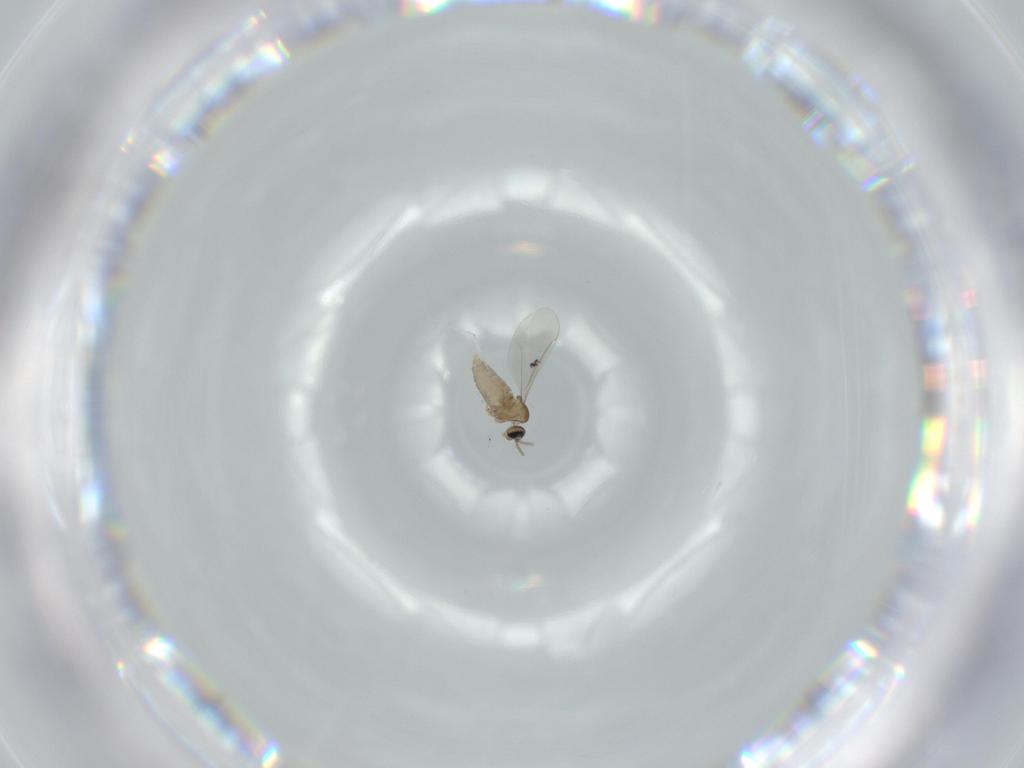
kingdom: Animalia
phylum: Arthropoda
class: Insecta
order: Diptera
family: Cecidomyiidae
